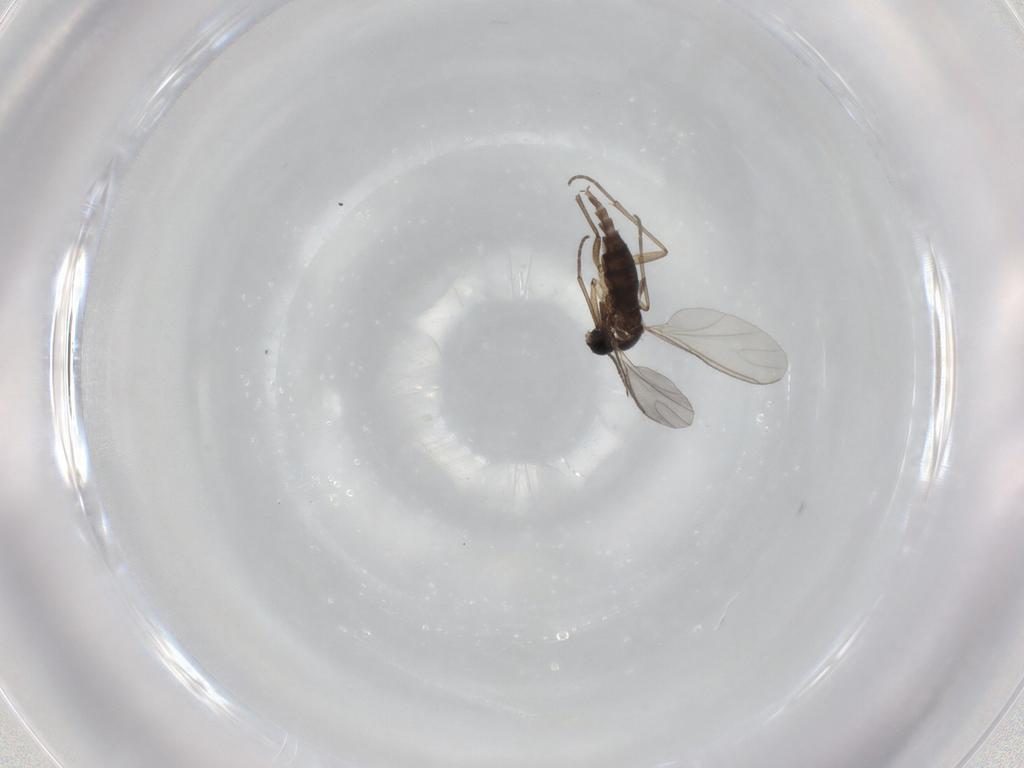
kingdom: Animalia
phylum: Arthropoda
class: Insecta
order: Diptera
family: Sciaridae
